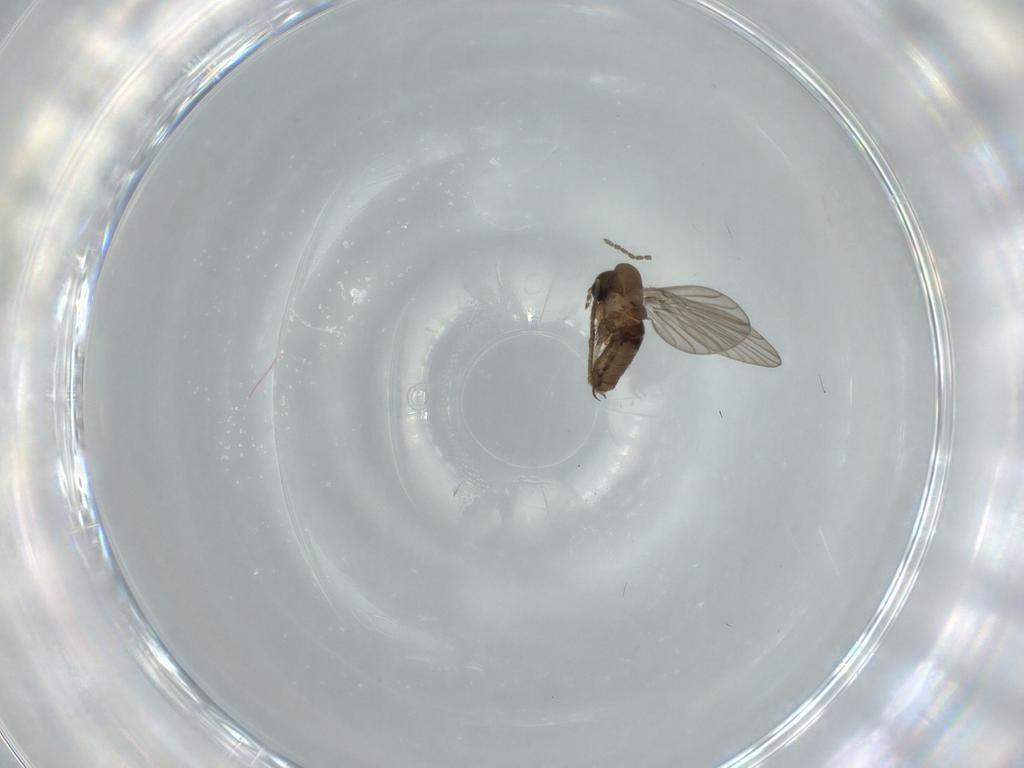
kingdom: Animalia
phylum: Arthropoda
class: Insecta
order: Diptera
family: Psychodidae
